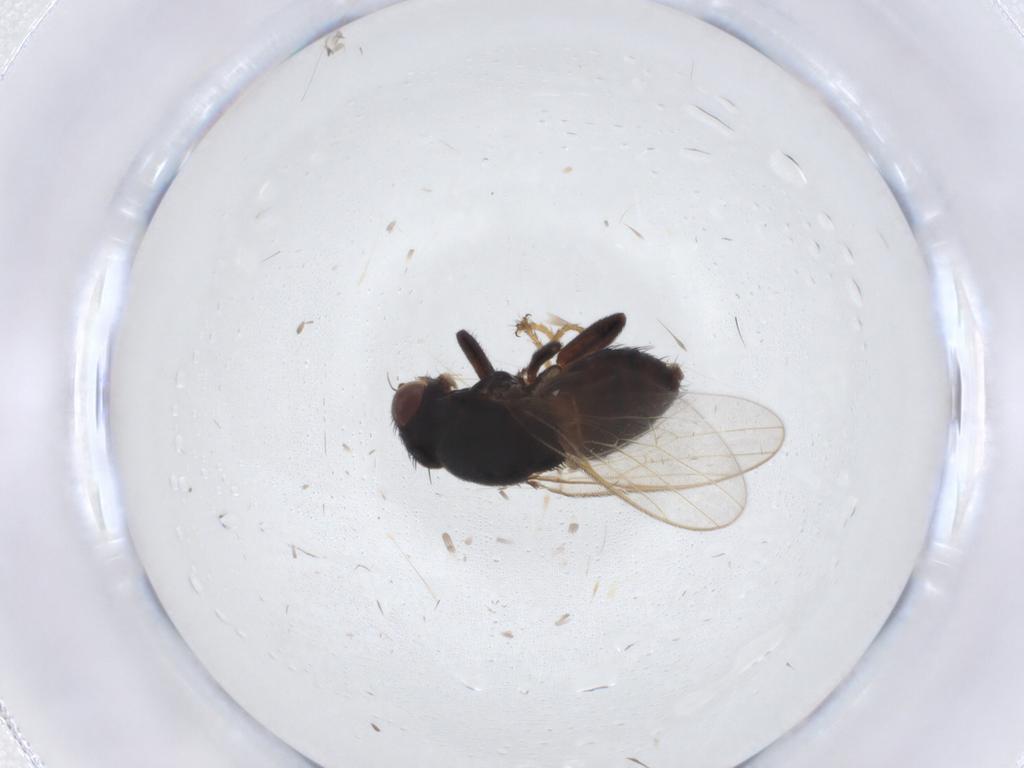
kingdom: Animalia
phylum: Arthropoda
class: Insecta
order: Diptera
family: Chloropidae
